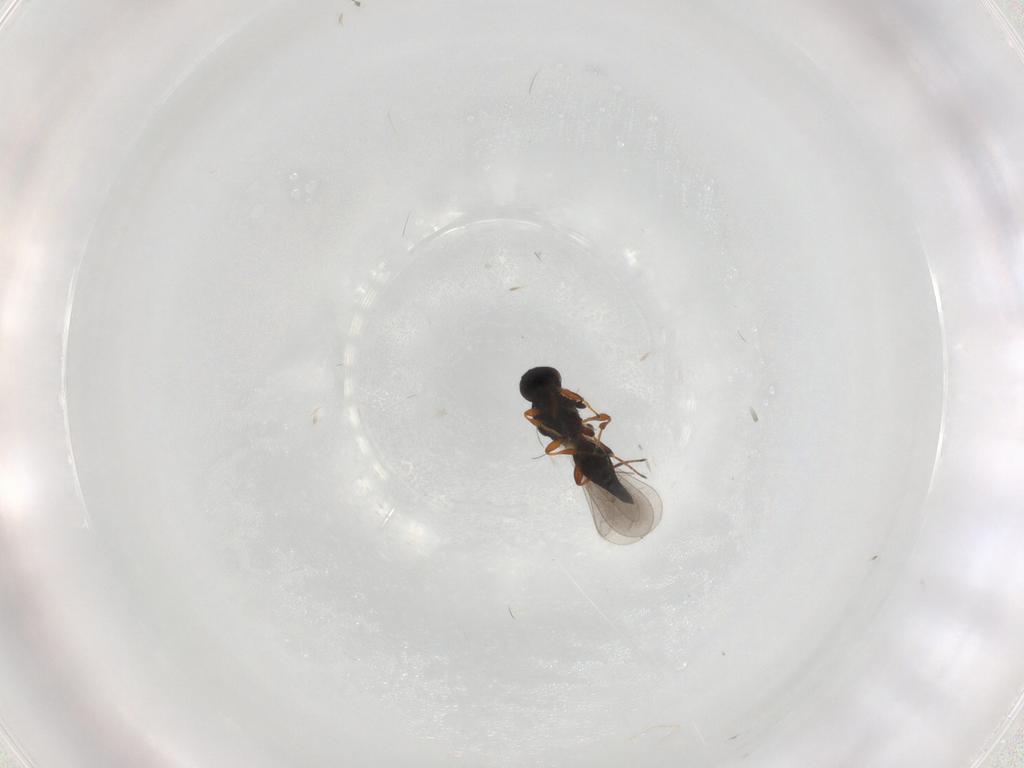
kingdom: Animalia
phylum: Arthropoda
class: Insecta
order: Hymenoptera
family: Platygastridae
